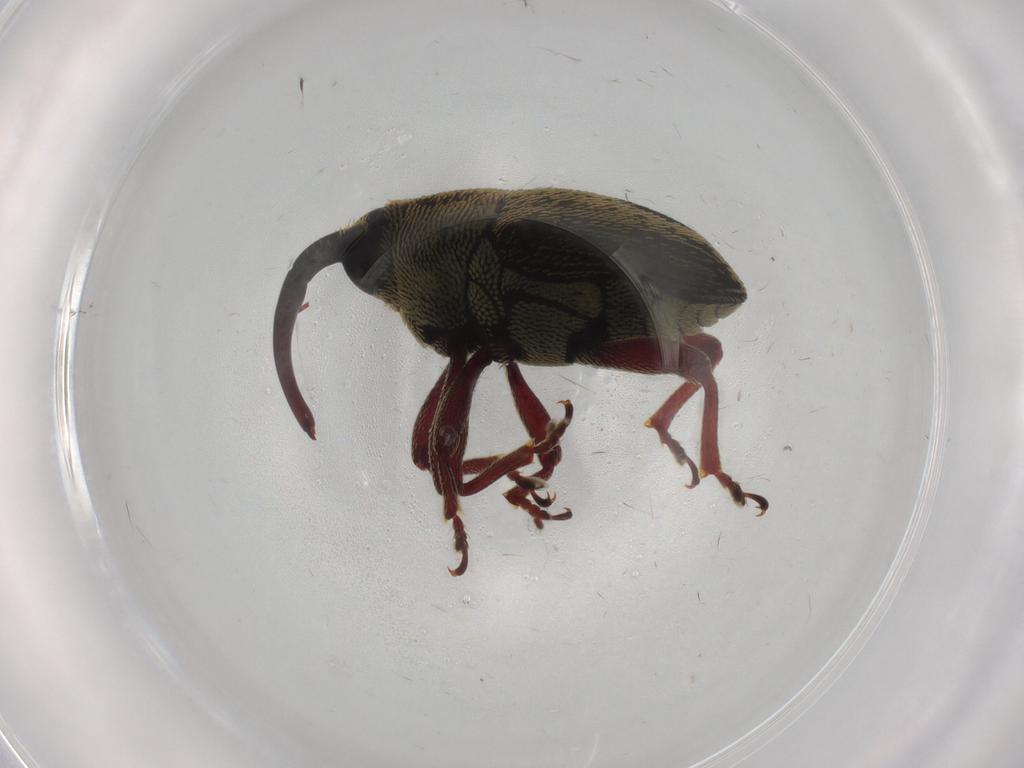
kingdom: Animalia
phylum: Arthropoda
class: Insecta
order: Coleoptera
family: Curculionidae
